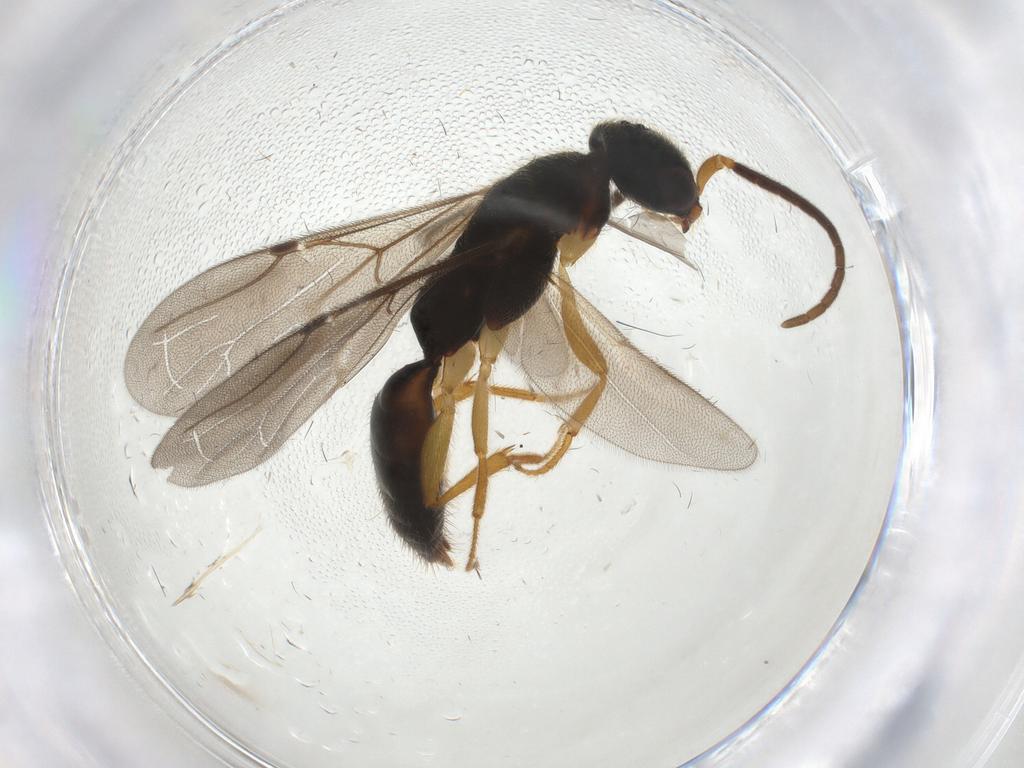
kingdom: Animalia
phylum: Arthropoda
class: Insecta
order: Hymenoptera
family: Bethylidae
